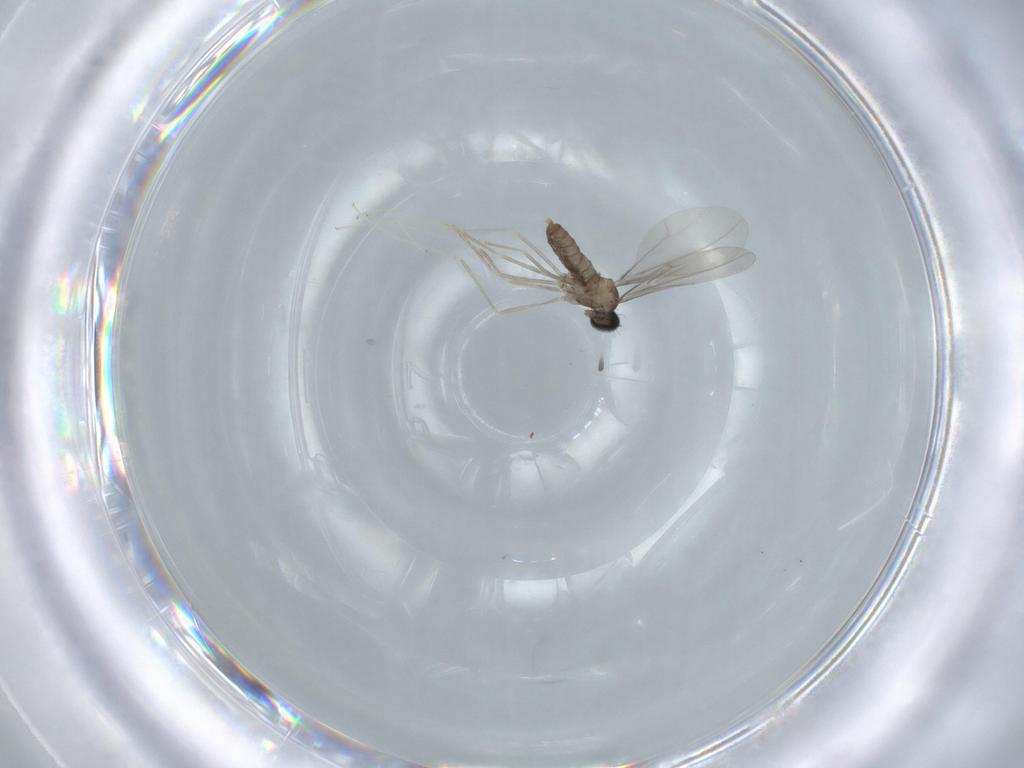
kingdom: Animalia
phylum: Arthropoda
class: Insecta
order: Diptera
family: Cecidomyiidae
